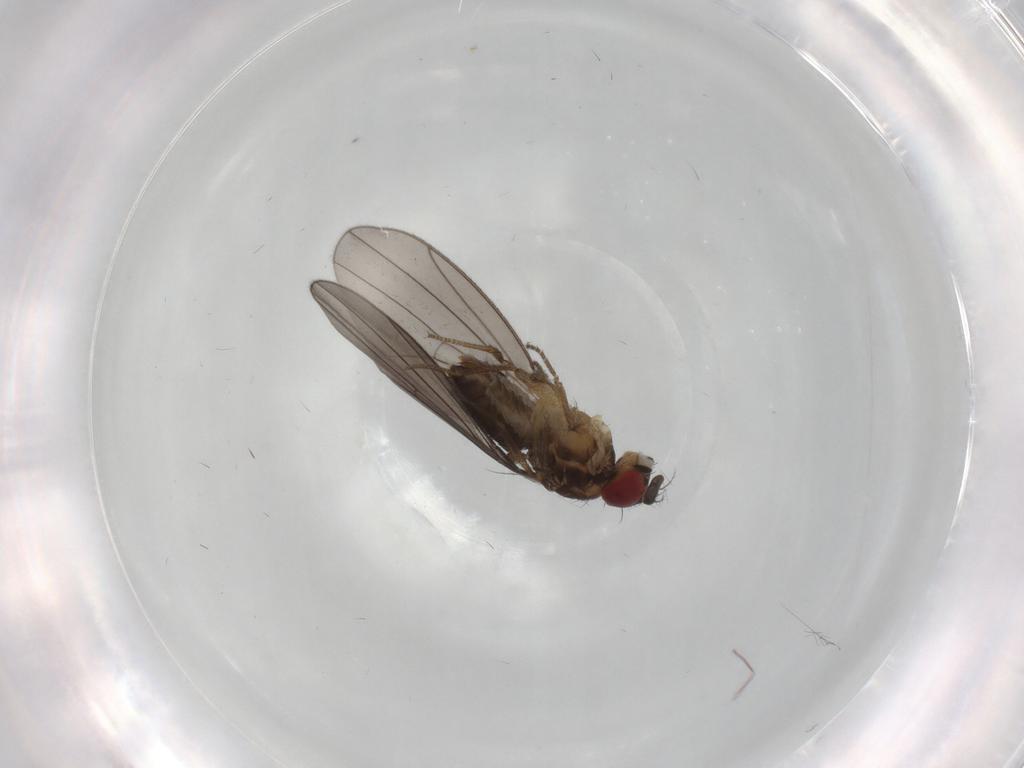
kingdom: Animalia
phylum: Arthropoda
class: Insecta
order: Diptera
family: Drosophilidae
